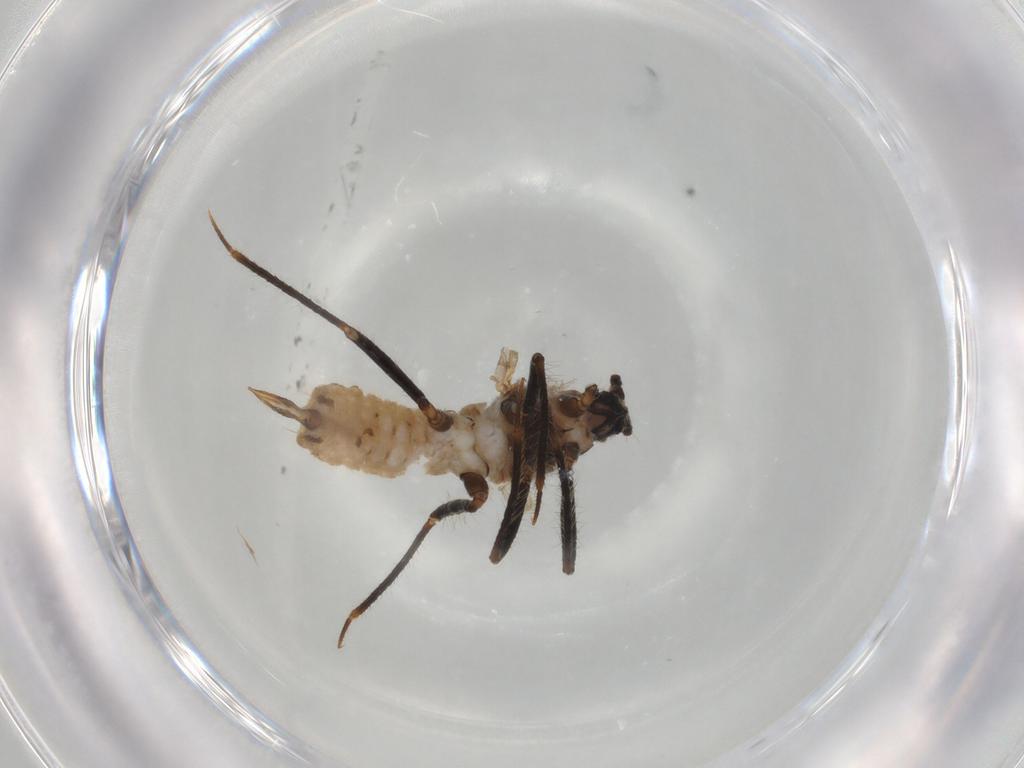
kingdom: Animalia
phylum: Arthropoda
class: Insecta
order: Hemiptera
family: Putoidae
